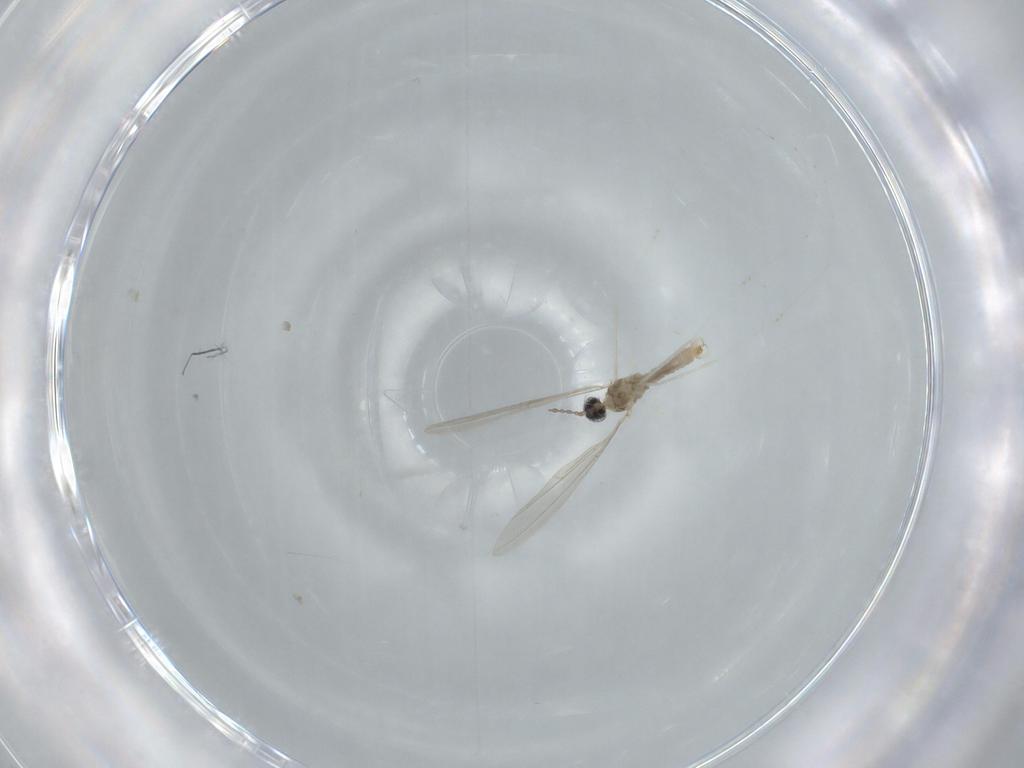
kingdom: Animalia
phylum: Arthropoda
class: Insecta
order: Diptera
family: Cecidomyiidae
